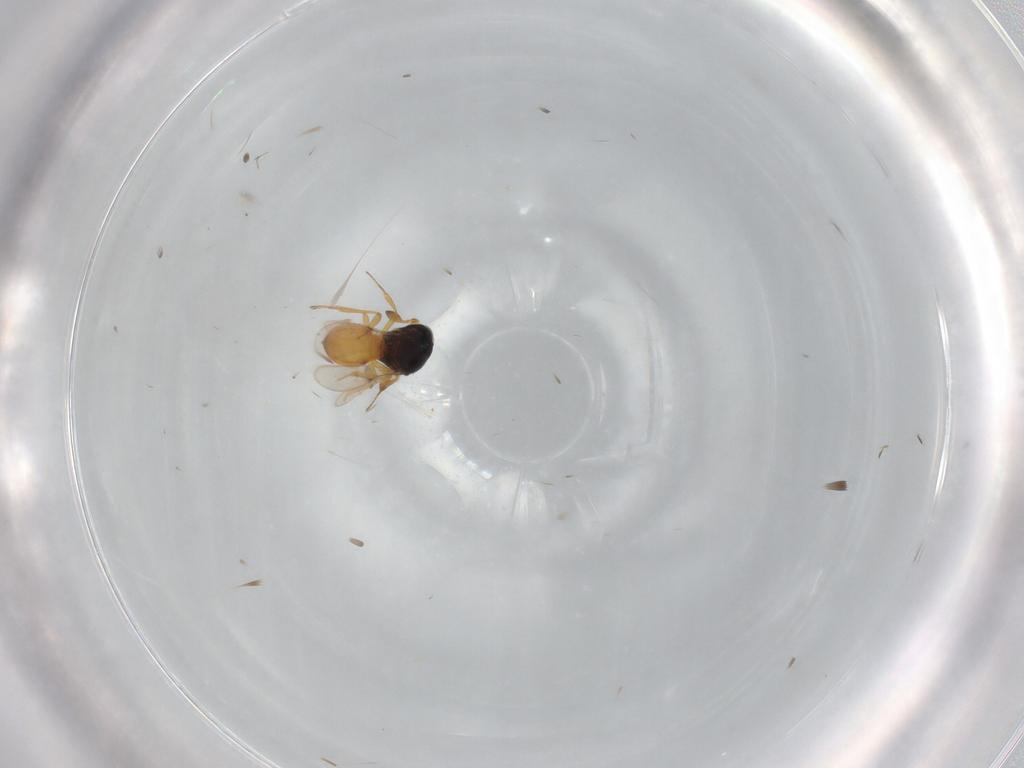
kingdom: Animalia
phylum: Arthropoda
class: Insecta
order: Hymenoptera
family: Scelionidae
